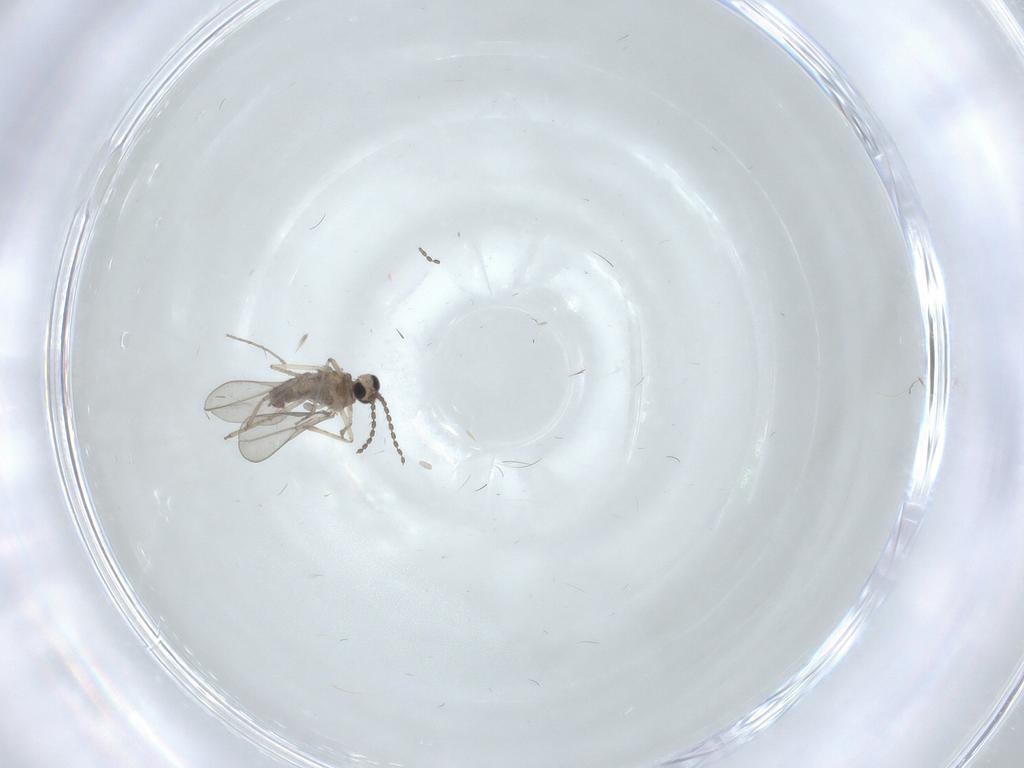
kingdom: Animalia
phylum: Arthropoda
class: Insecta
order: Diptera
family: Cecidomyiidae
